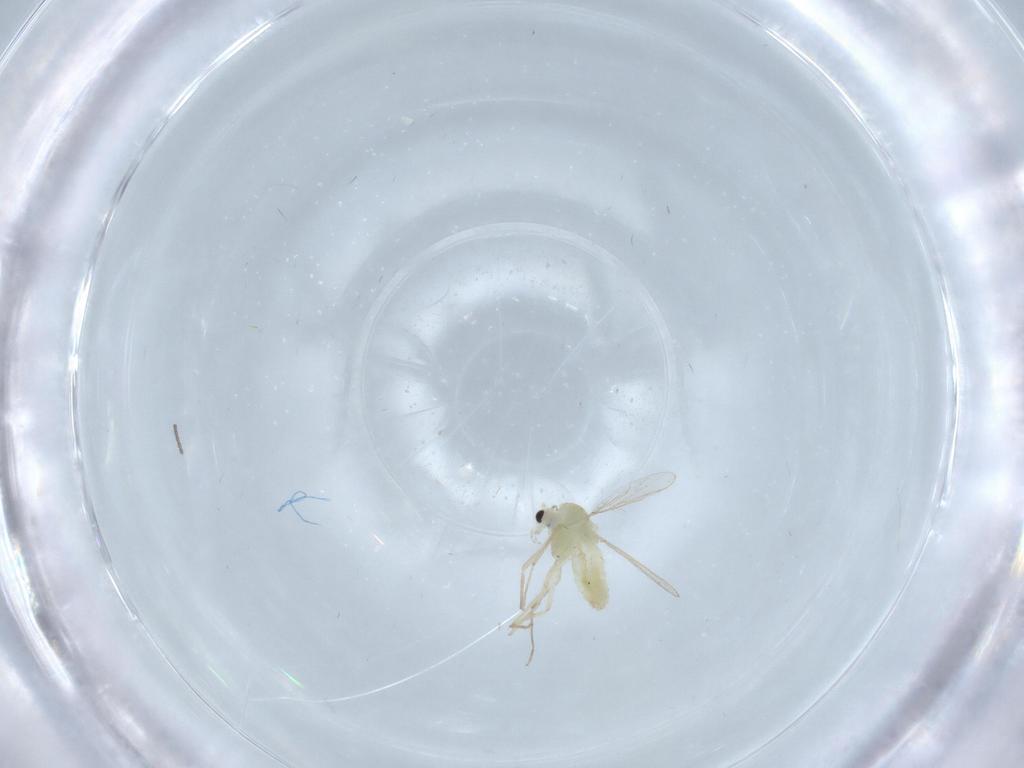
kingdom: Animalia
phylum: Arthropoda
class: Insecta
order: Diptera
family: Chironomidae
